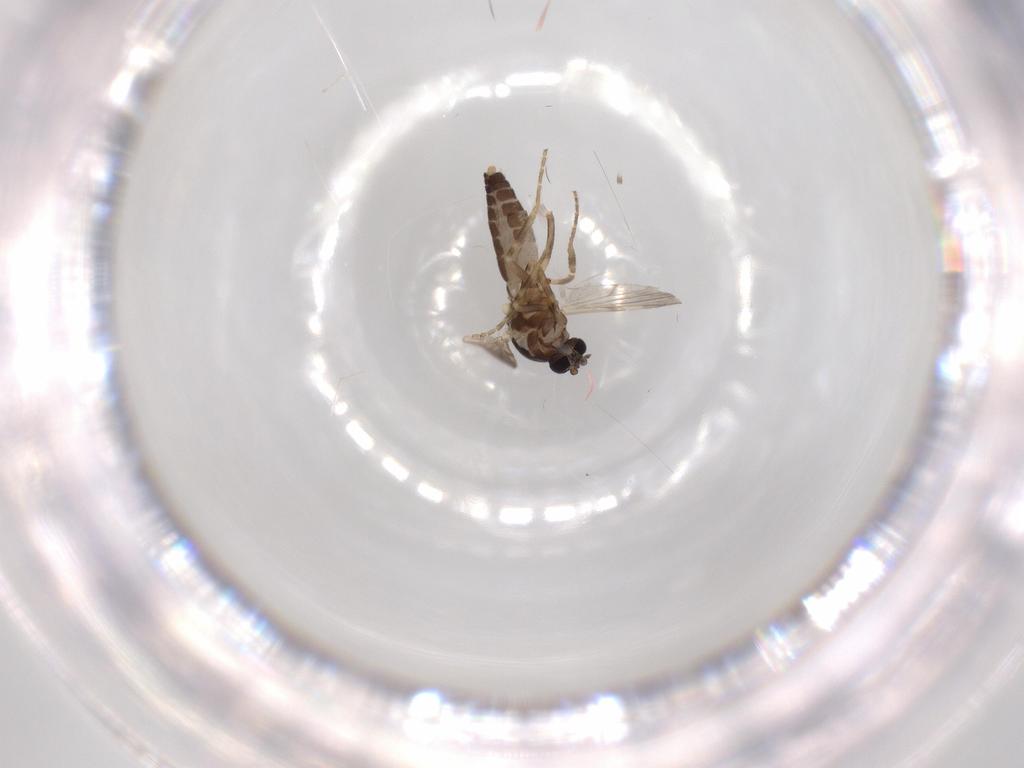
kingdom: Animalia
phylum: Arthropoda
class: Insecta
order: Diptera
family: Ceratopogonidae
